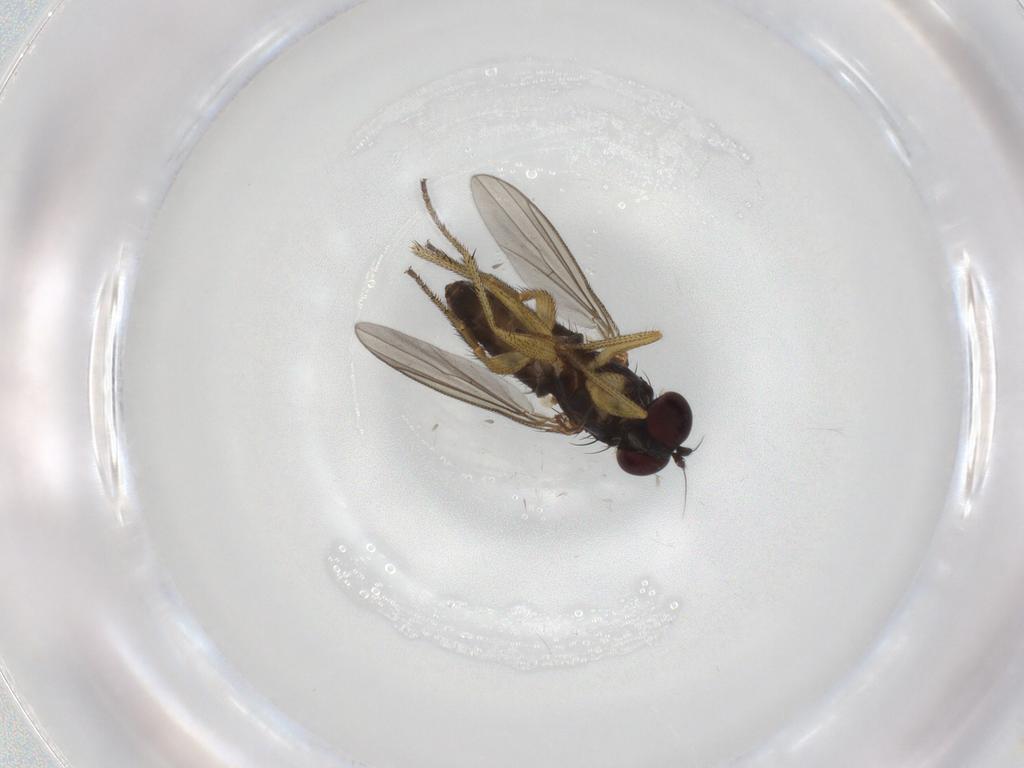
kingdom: Animalia
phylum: Arthropoda
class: Insecta
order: Diptera
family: Dolichopodidae
